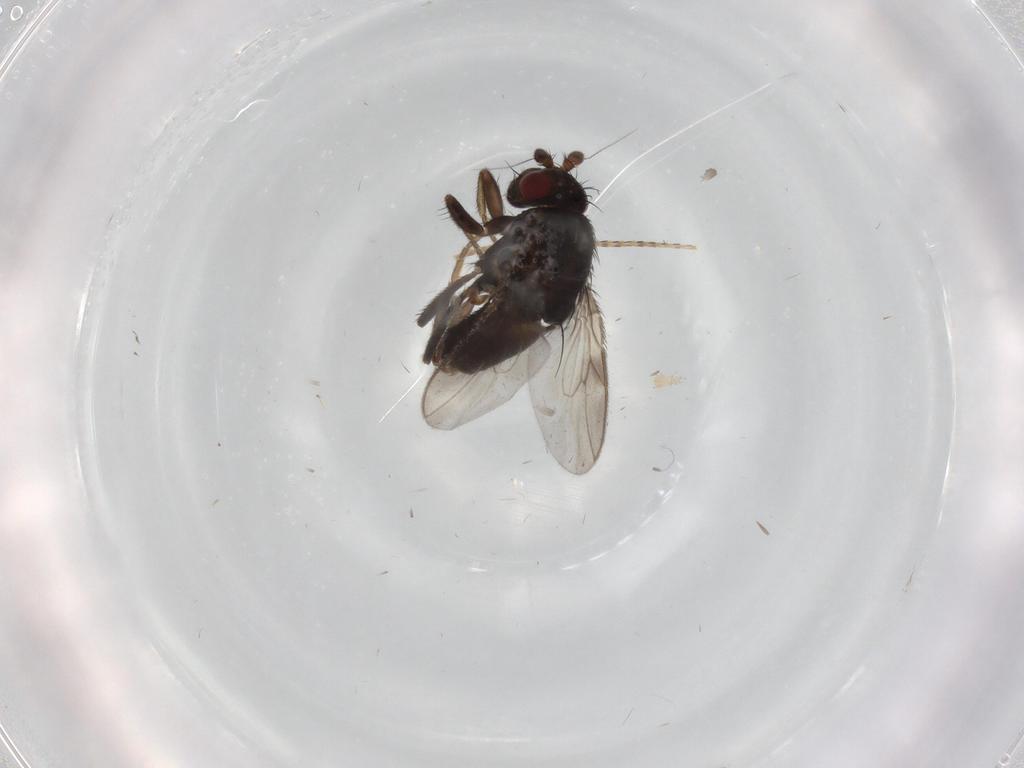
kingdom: Animalia
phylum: Arthropoda
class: Insecta
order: Diptera
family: Sphaeroceridae
